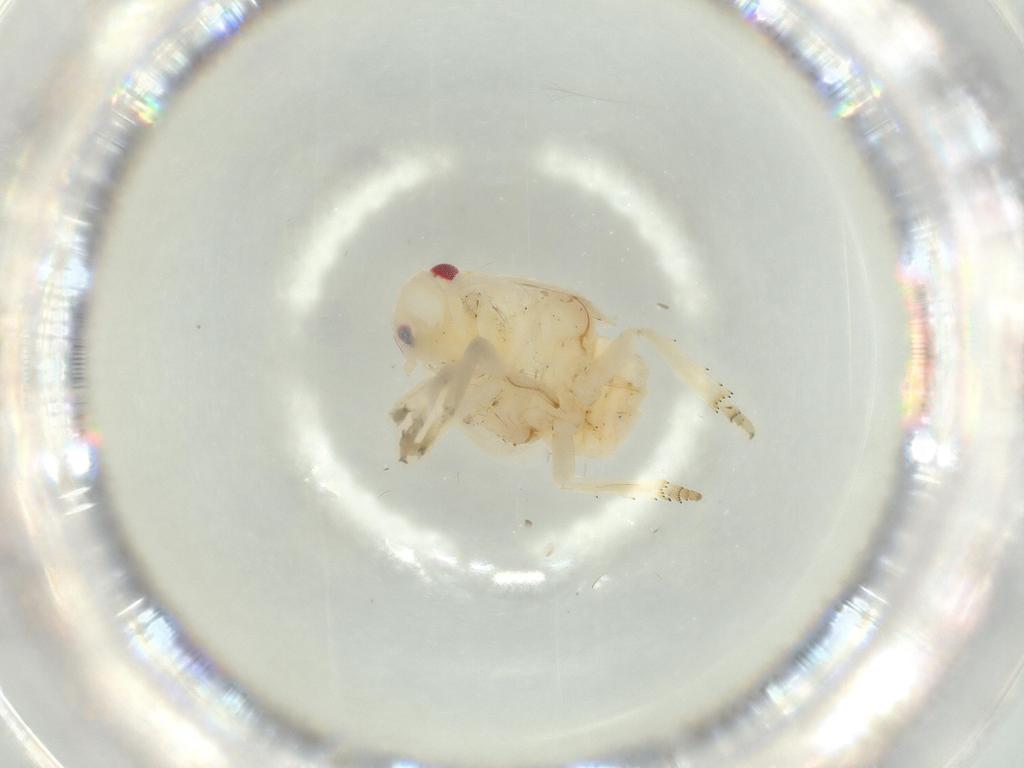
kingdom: Animalia
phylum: Arthropoda
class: Insecta
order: Hemiptera
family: Flatidae
